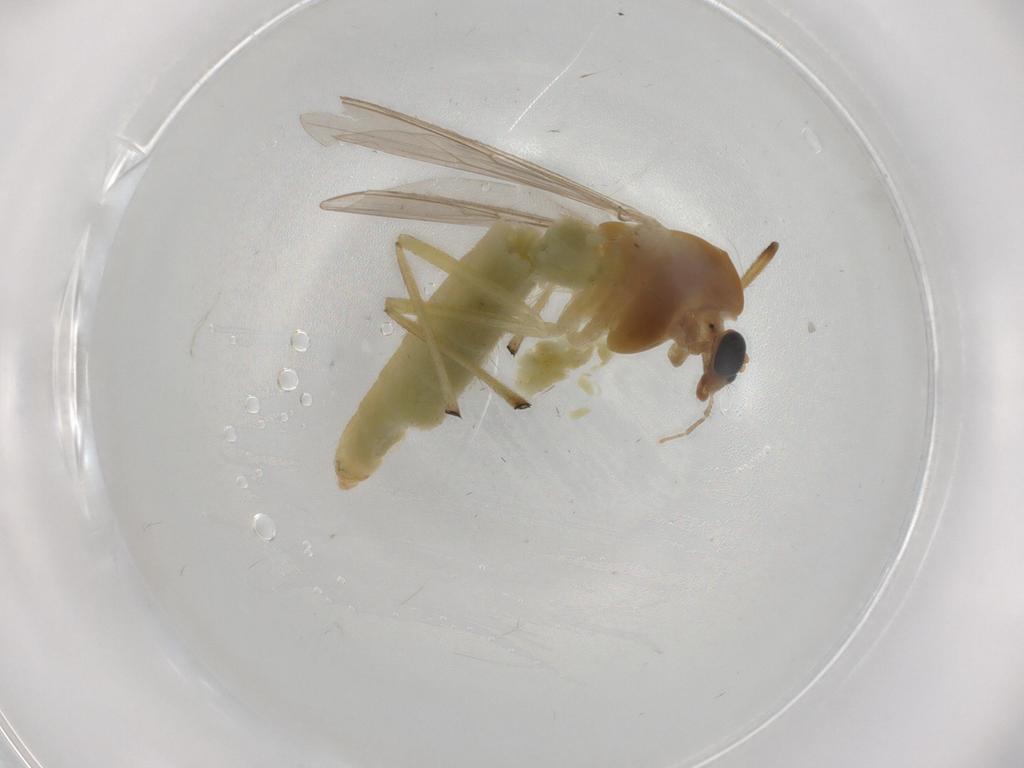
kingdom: Animalia
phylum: Arthropoda
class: Insecta
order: Diptera
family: Chironomidae
